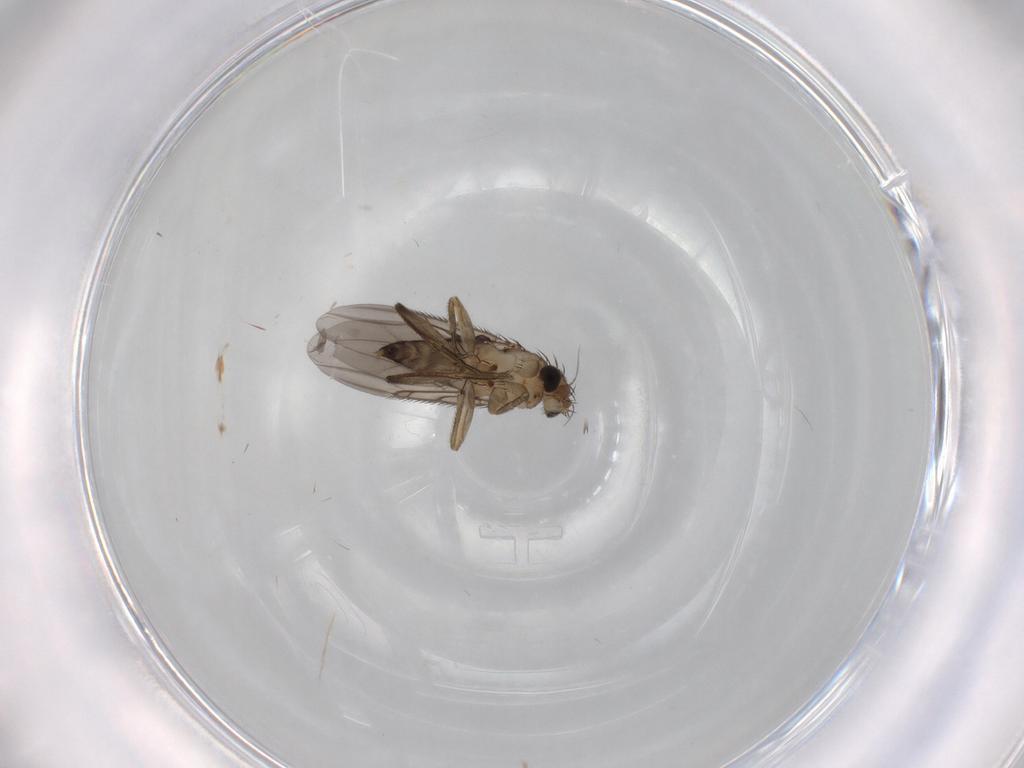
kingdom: Animalia
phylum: Arthropoda
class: Insecta
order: Diptera
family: Phoridae
